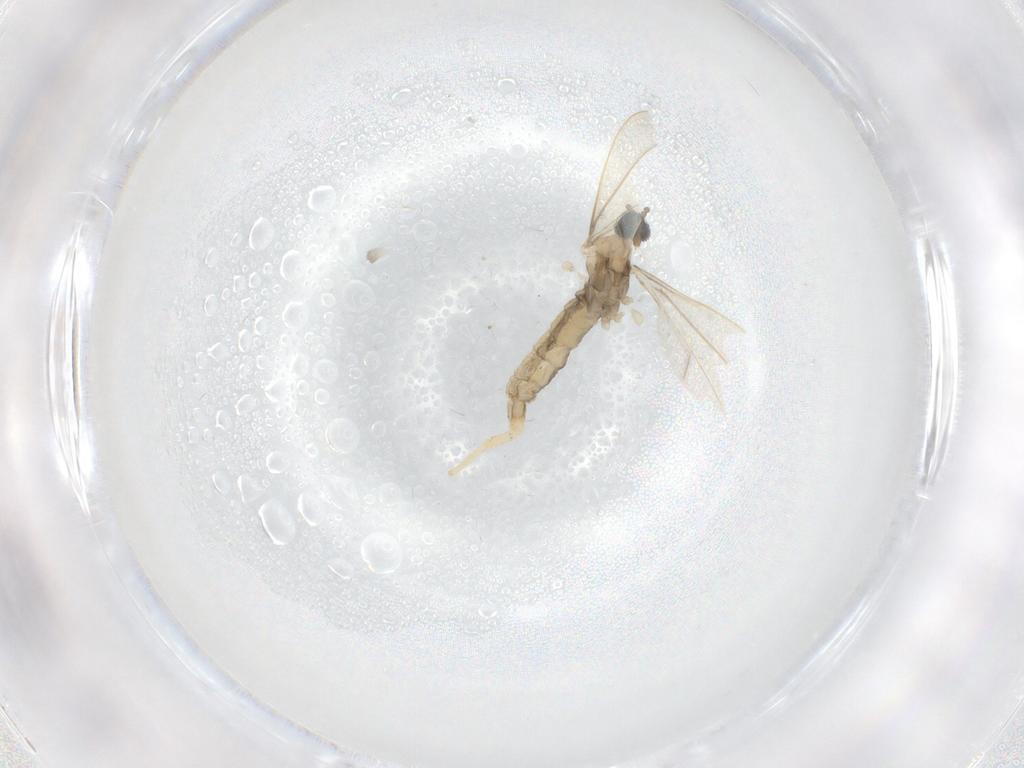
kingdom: Animalia
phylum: Arthropoda
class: Insecta
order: Diptera
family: Cecidomyiidae
